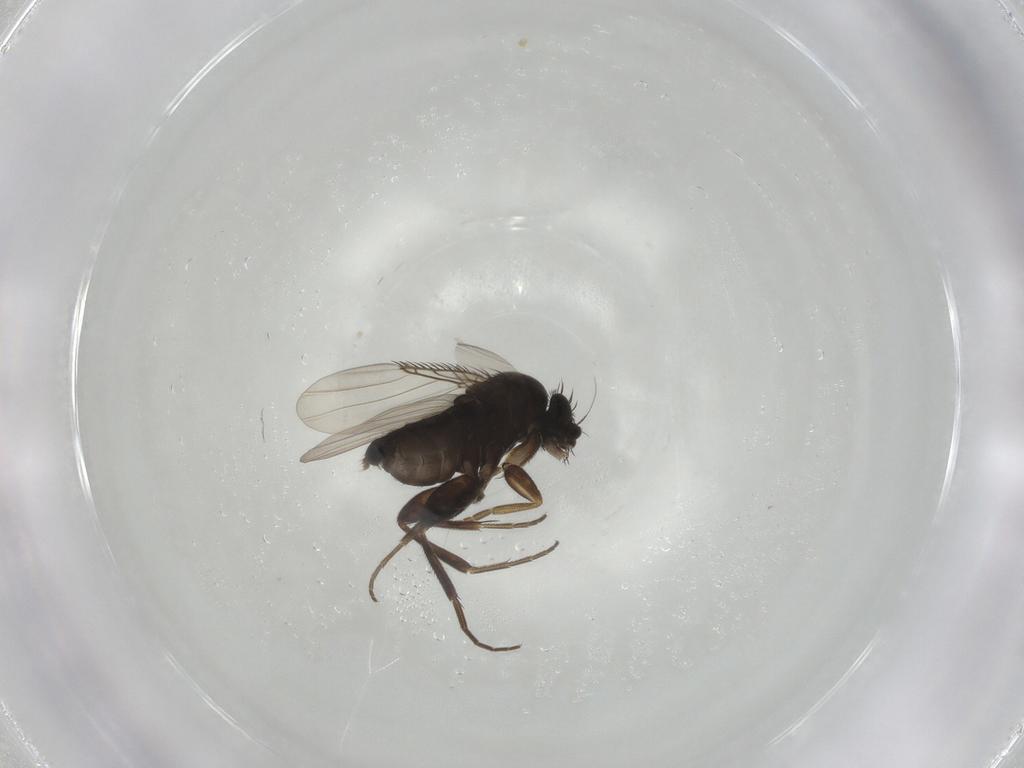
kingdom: Animalia
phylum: Arthropoda
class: Insecta
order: Diptera
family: Phoridae
